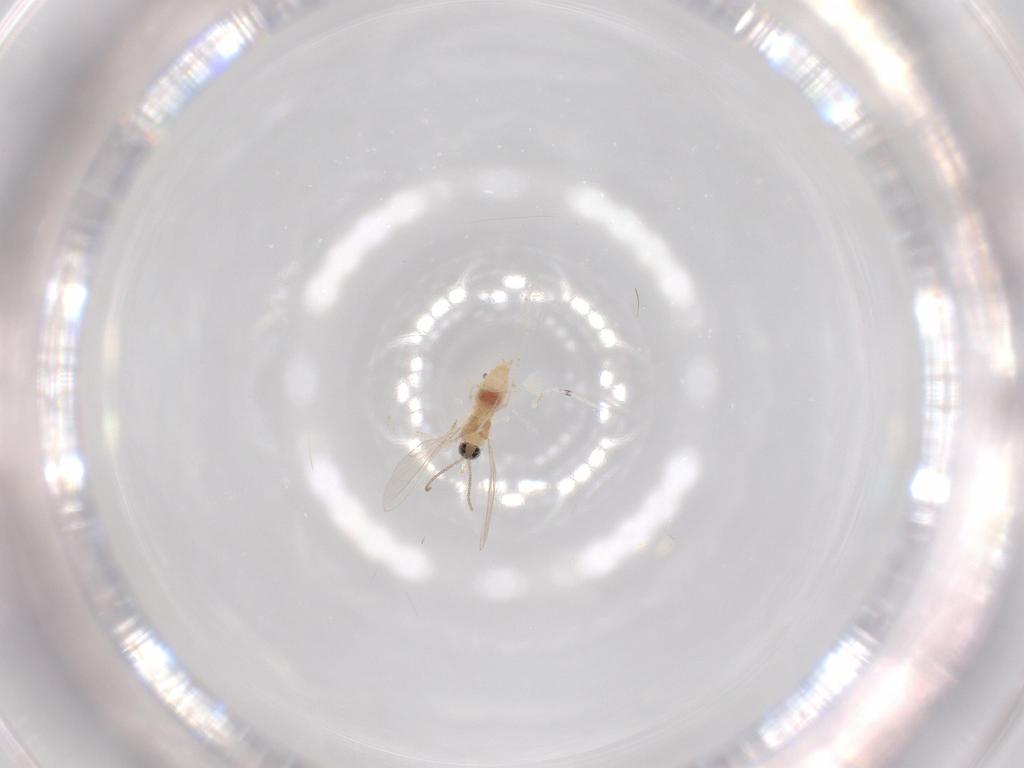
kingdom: Animalia
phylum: Arthropoda
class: Insecta
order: Diptera
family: Cecidomyiidae
